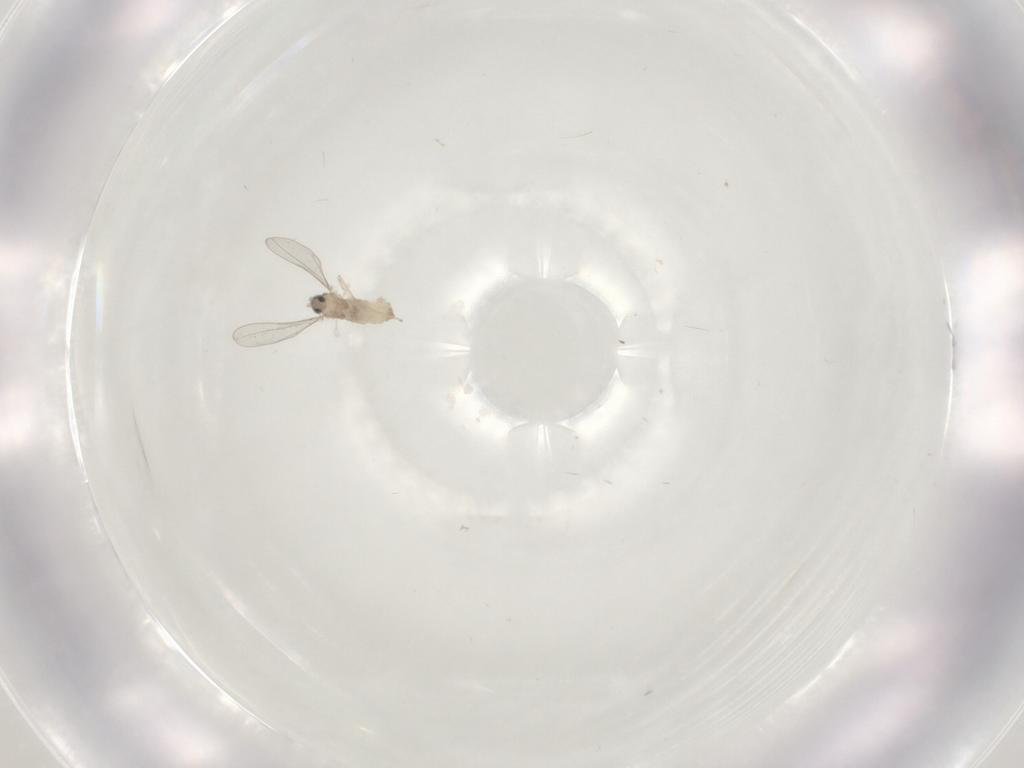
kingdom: Animalia
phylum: Arthropoda
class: Insecta
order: Diptera
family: Cecidomyiidae
